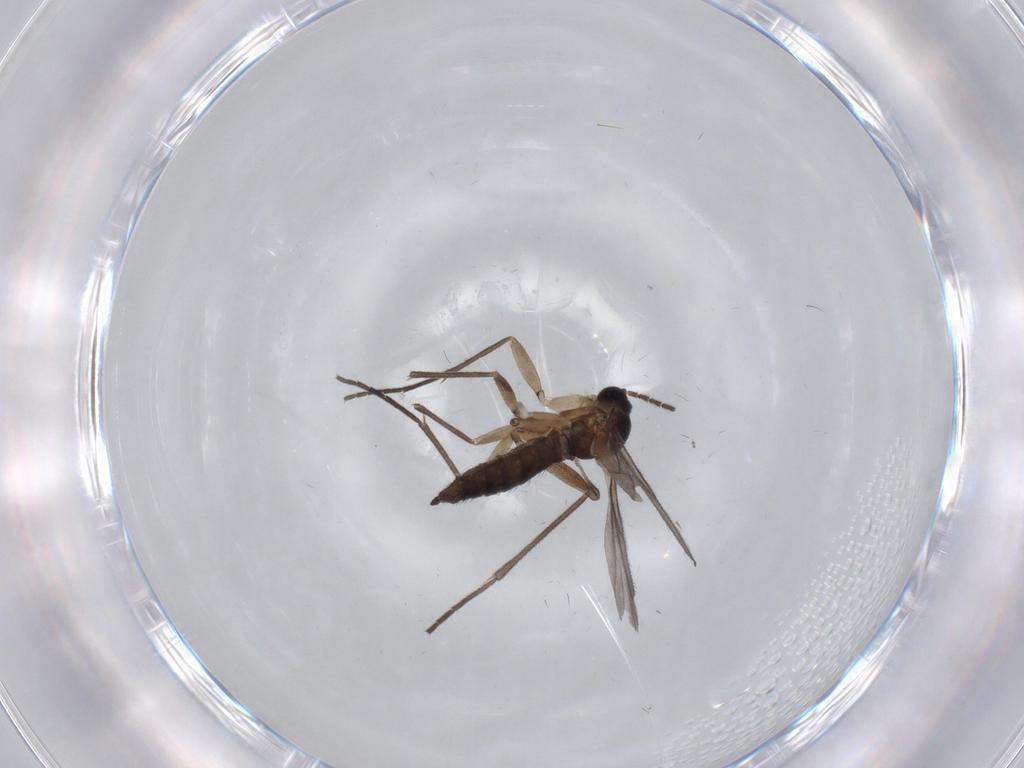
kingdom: Animalia
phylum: Arthropoda
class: Insecta
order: Diptera
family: Sciaridae
